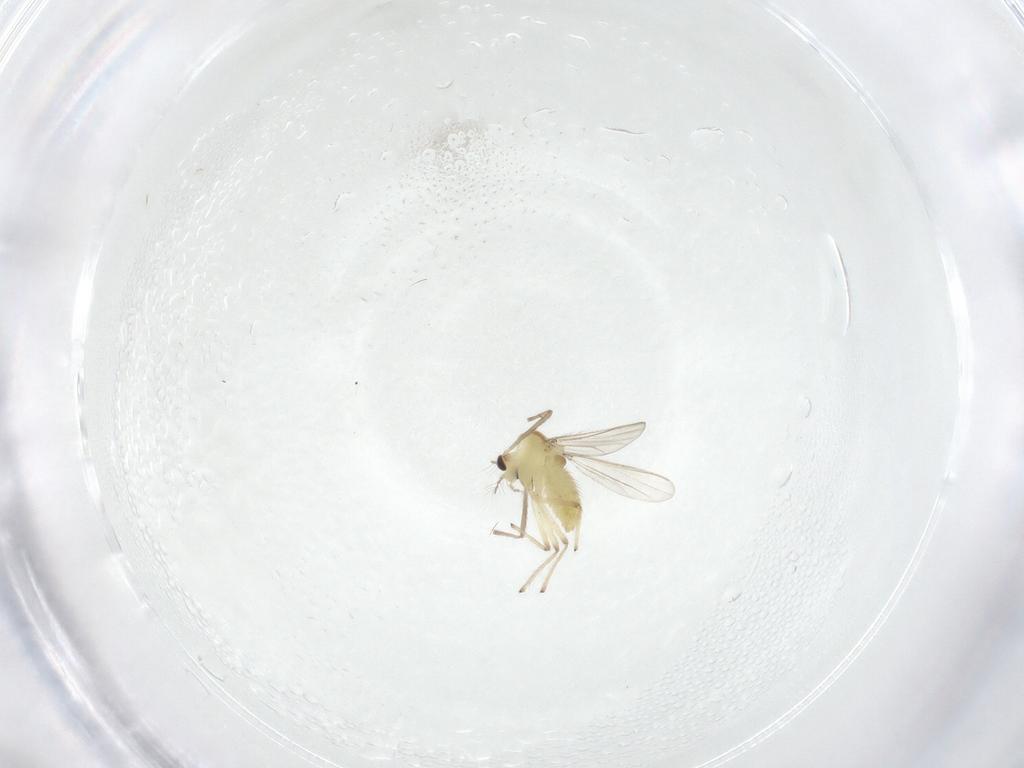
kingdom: Animalia
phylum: Arthropoda
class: Insecta
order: Diptera
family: Chironomidae
